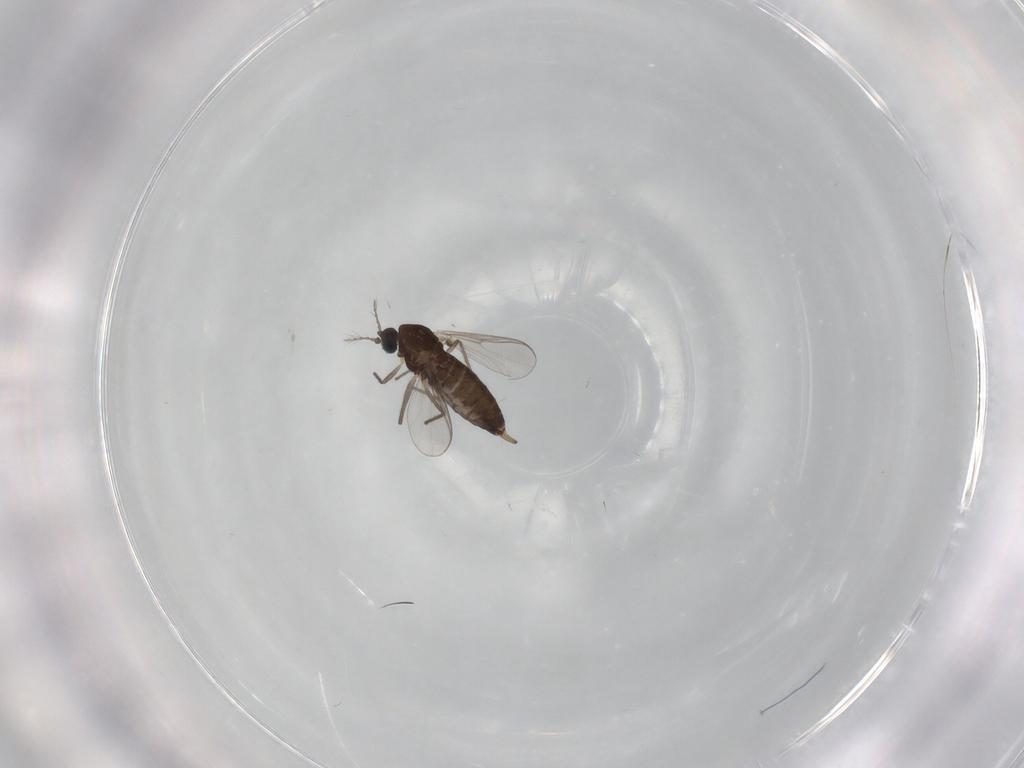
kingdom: Animalia
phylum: Arthropoda
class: Insecta
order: Diptera
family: Chironomidae
